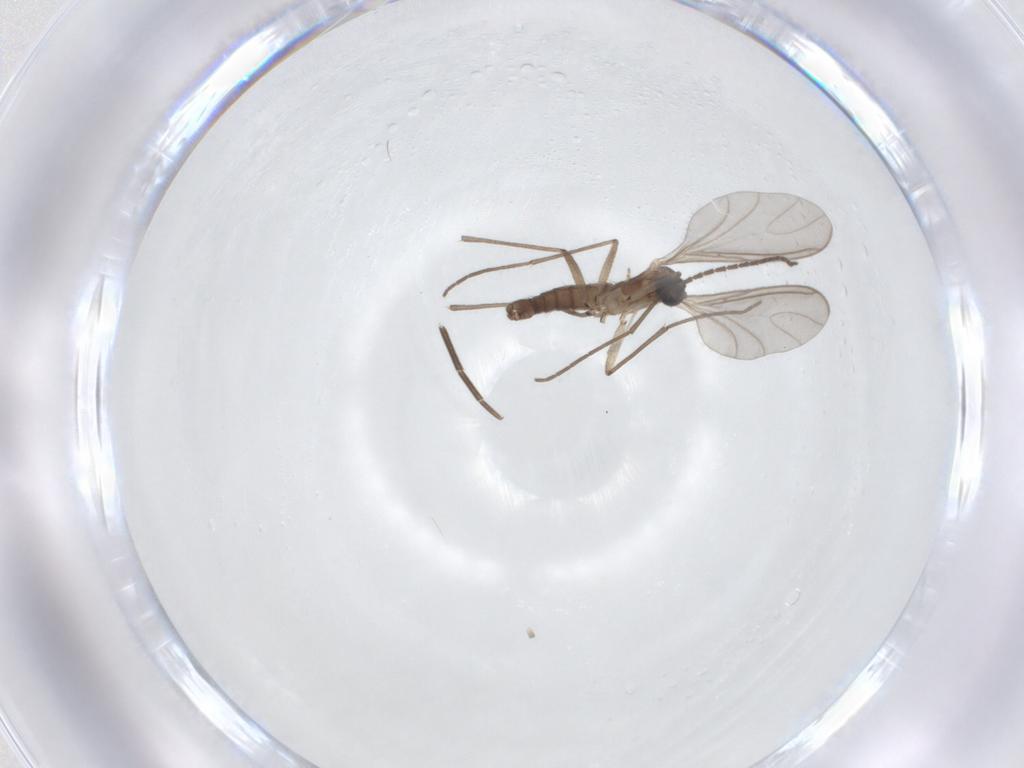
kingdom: Animalia
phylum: Arthropoda
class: Insecta
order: Diptera
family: Sciaridae
